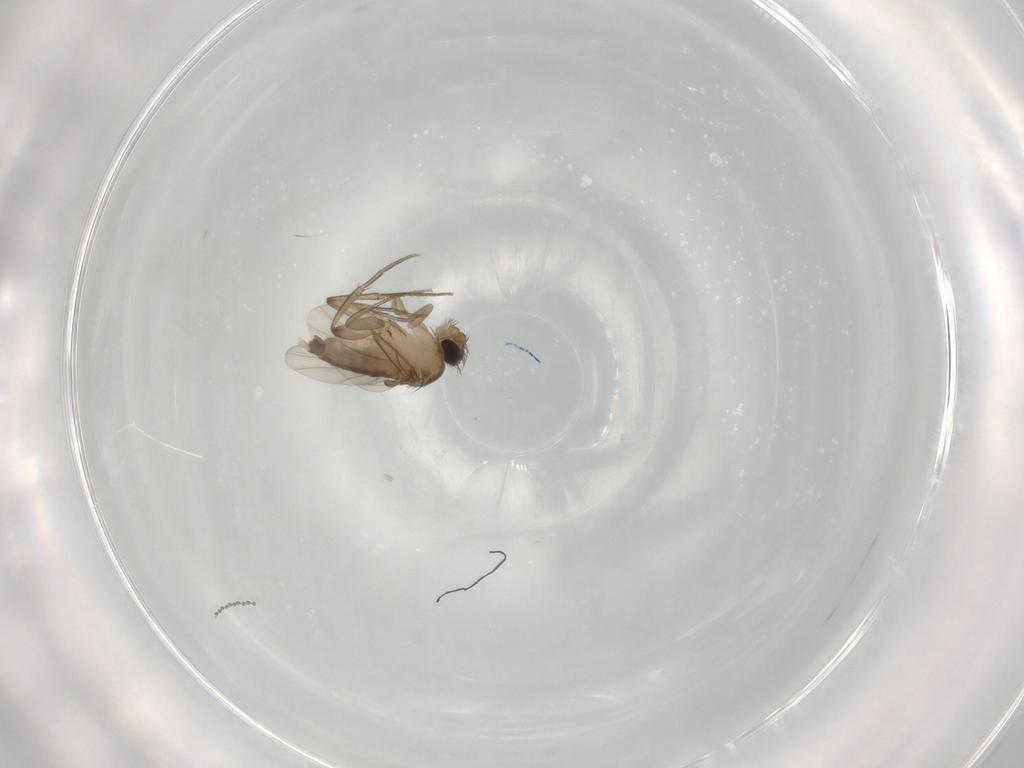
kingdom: Animalia
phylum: Arthropoda
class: Insecta
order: Diptera
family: Cecidomyiidae
